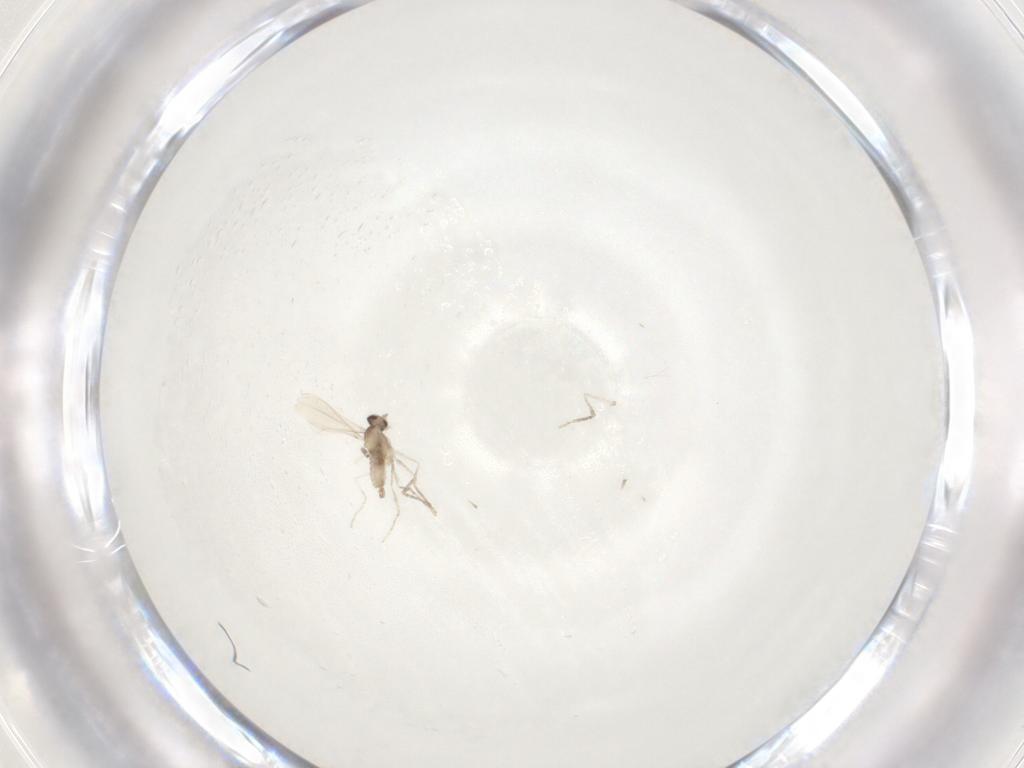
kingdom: Animalia
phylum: Arthropoda
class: Insecta
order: Diptera
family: Cecidomyiidae
